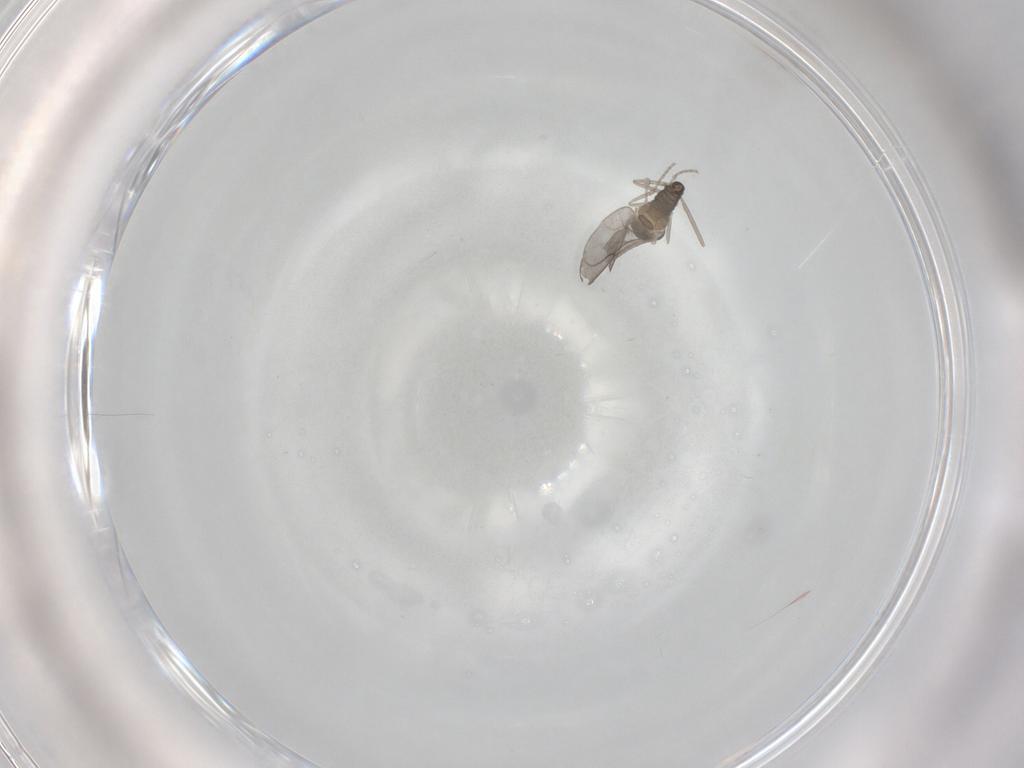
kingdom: Animalia
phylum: Arthropoda
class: Insecta
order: Diptera
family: Cecidomyiidae
